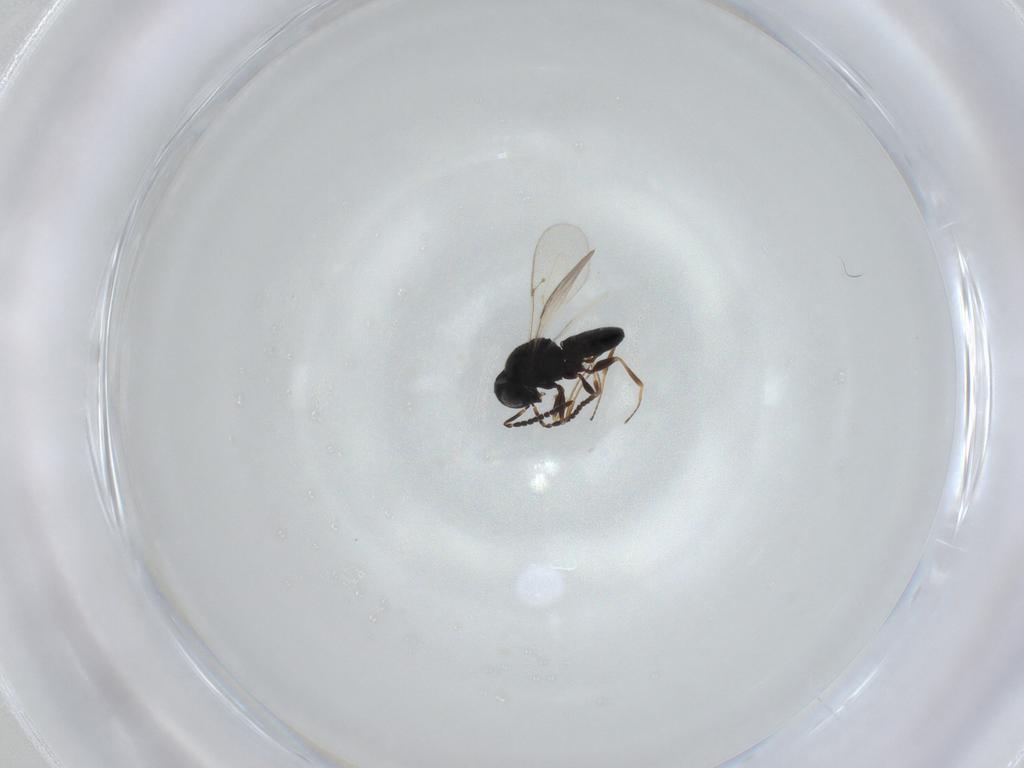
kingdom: Animalia
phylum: Arthropoda
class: Insecta
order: Hymenoptera
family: Scelionidae
